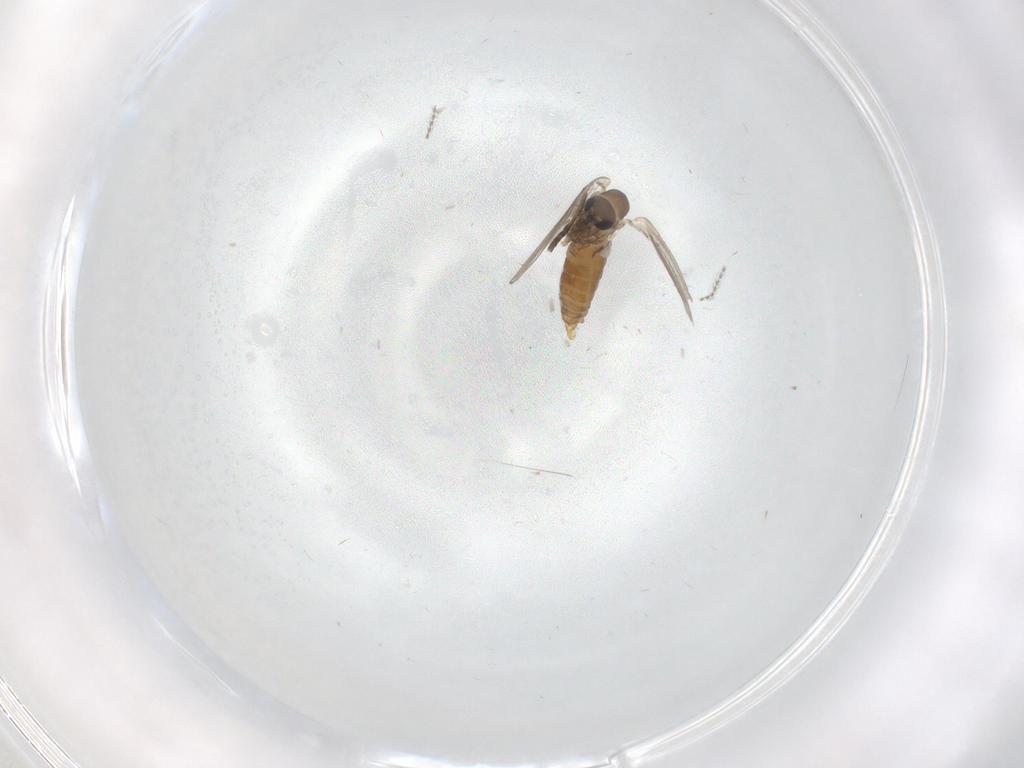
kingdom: Animalia
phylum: Arthropoda
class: Insecta
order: Diptera
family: Cecidomyiidae
